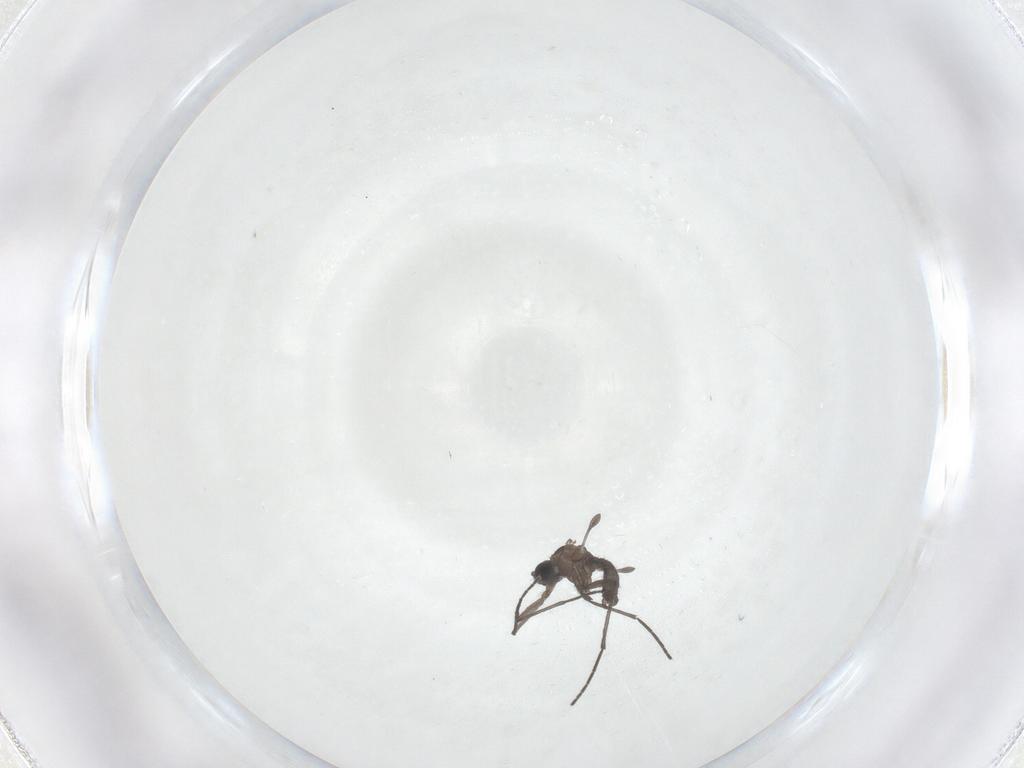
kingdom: Animalia
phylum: Arthropoda
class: Insecta
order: Diptera
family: Sciaridae
